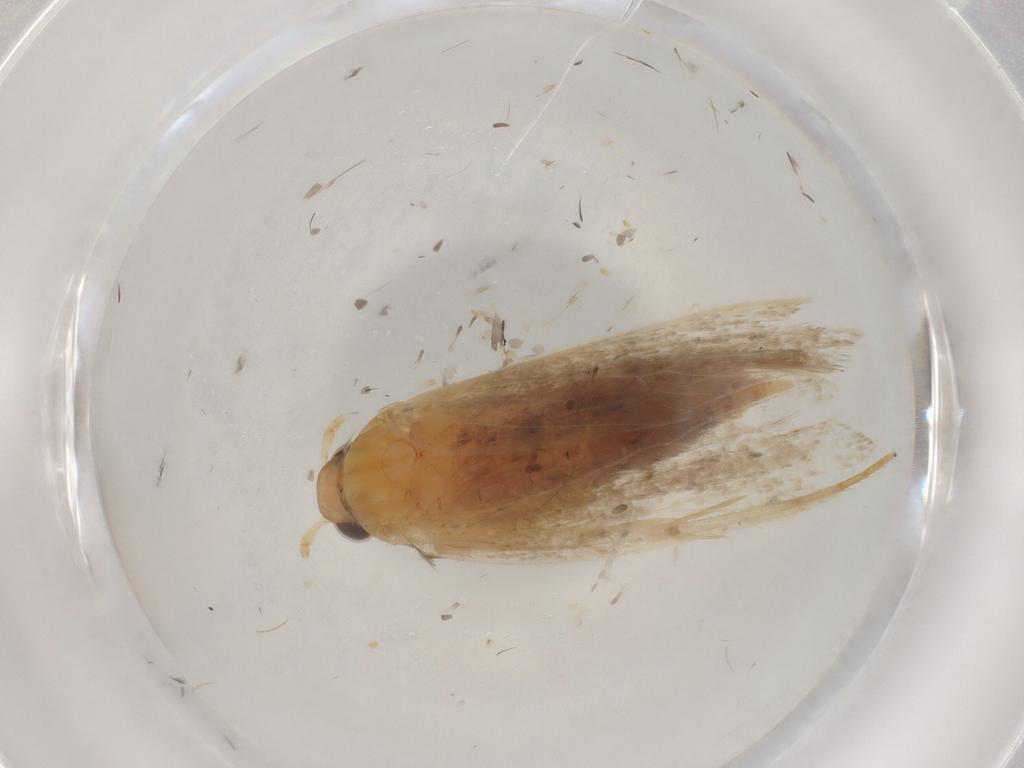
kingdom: Animalia
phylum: Arthropoda
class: Insecta
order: Lepidoptera
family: Lecithoceridae
